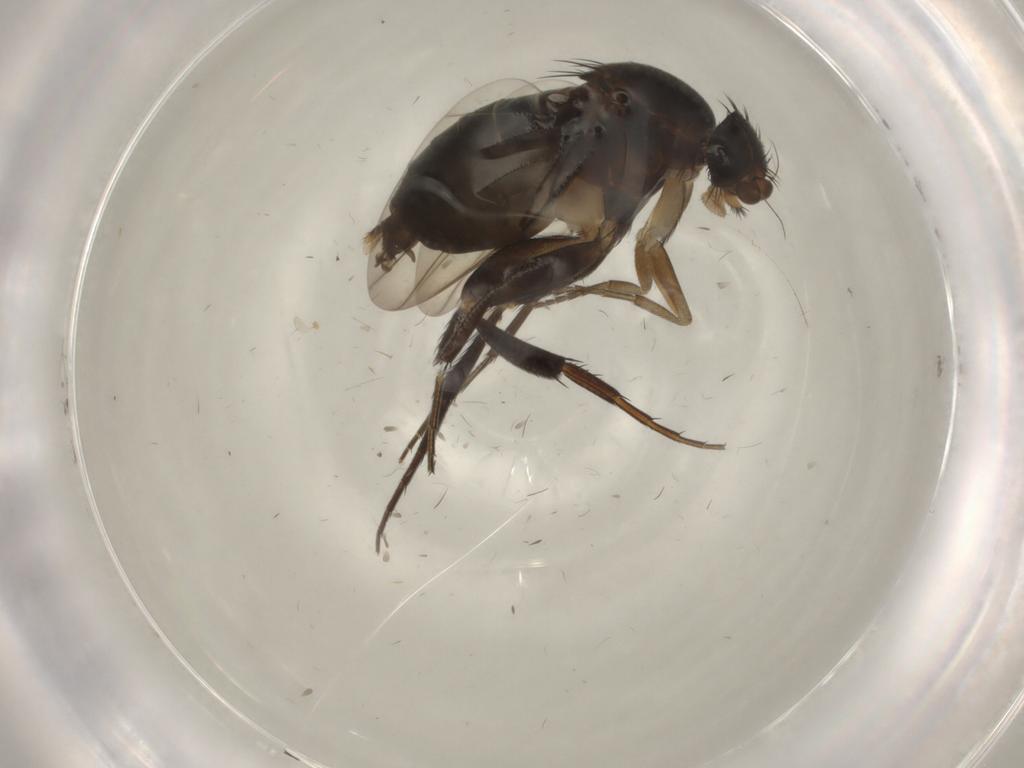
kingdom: Animalia
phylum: Arthropoda
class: Insecta
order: Diptera
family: Phoridae
